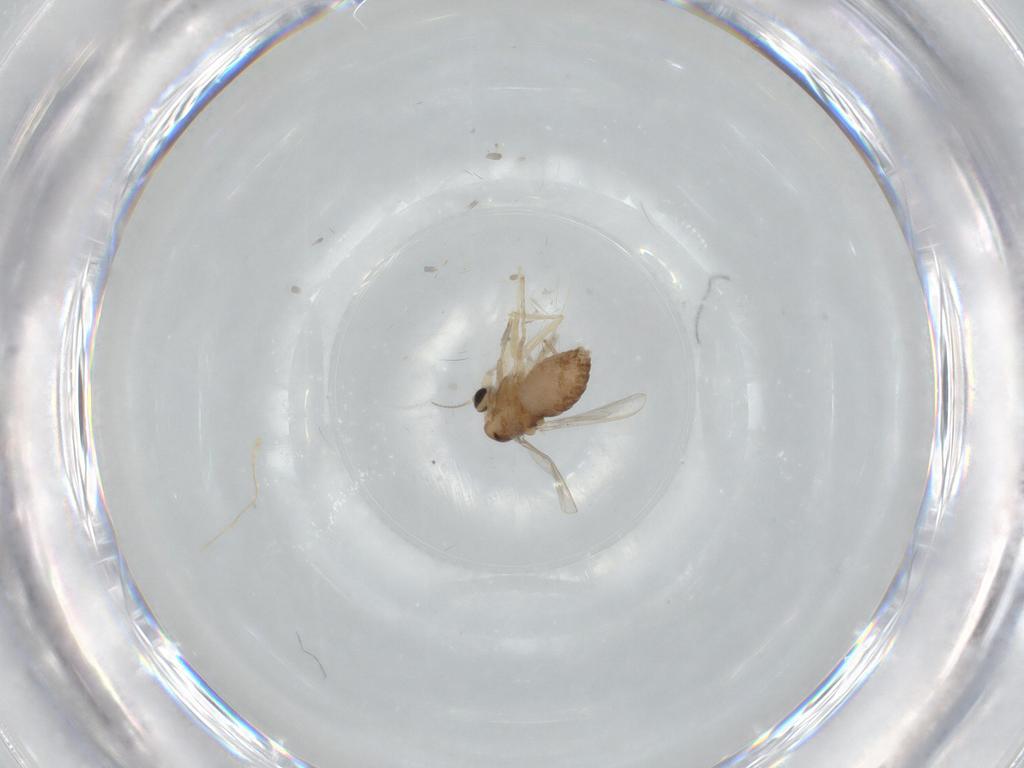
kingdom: Animalia
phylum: Arthropoda
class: Insecta
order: Diptera
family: Chironomidae
